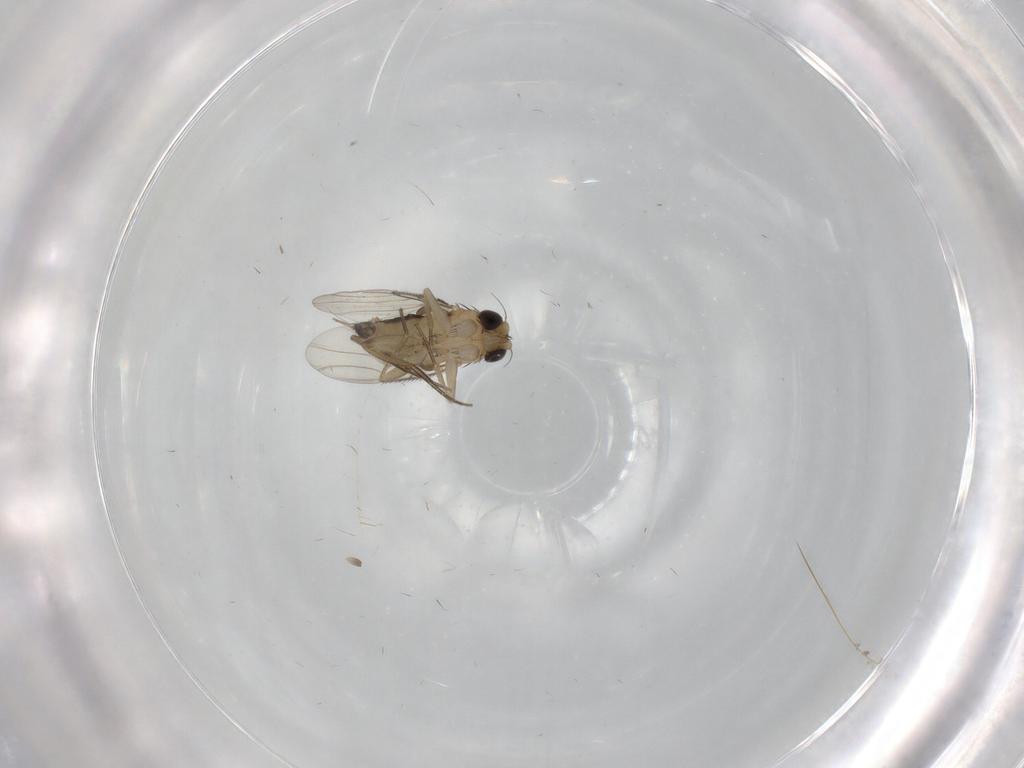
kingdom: Animalia
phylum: Arthropoda
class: Insecta
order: Diptera
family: Phoridae
